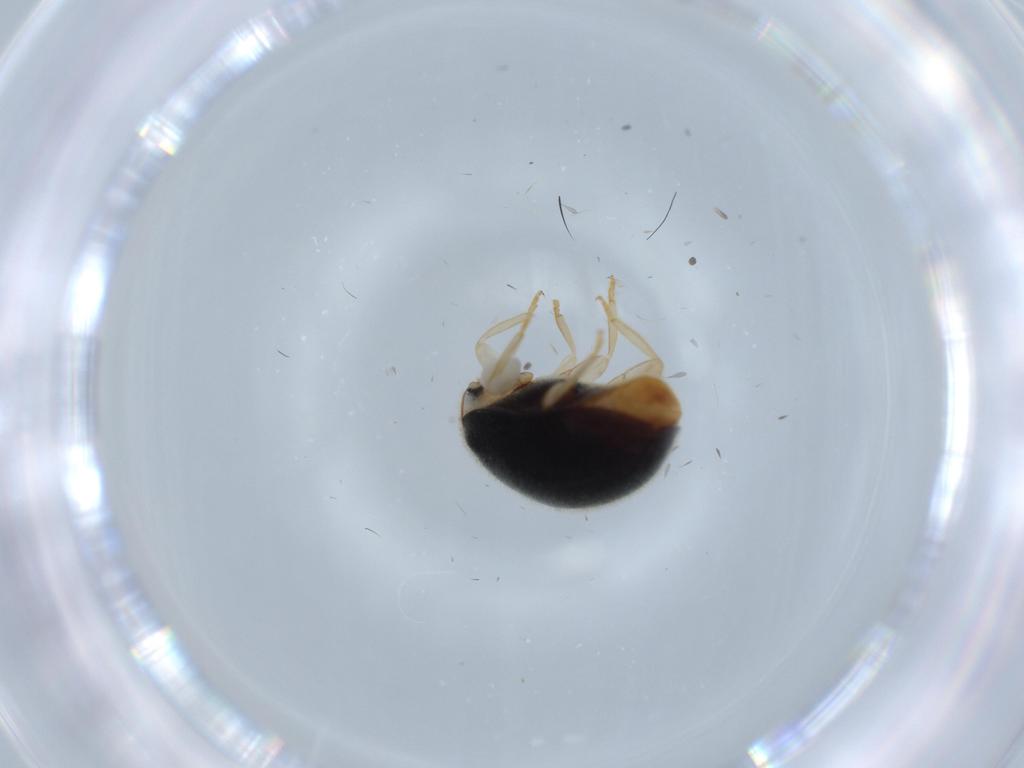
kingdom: Animalia
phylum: Arthropoda
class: Insecta
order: Coleoptera
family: Coccinellidae
